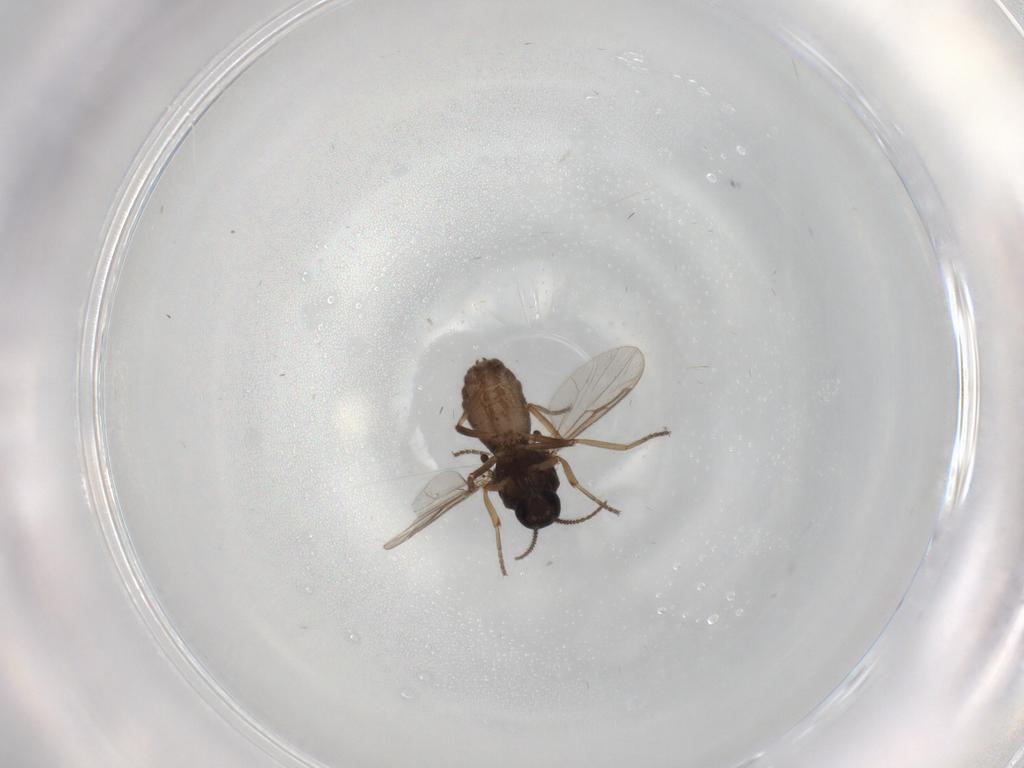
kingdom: Animalia
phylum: Arthropoda
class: Insecta
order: Diptera
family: Ceratopogonidae
